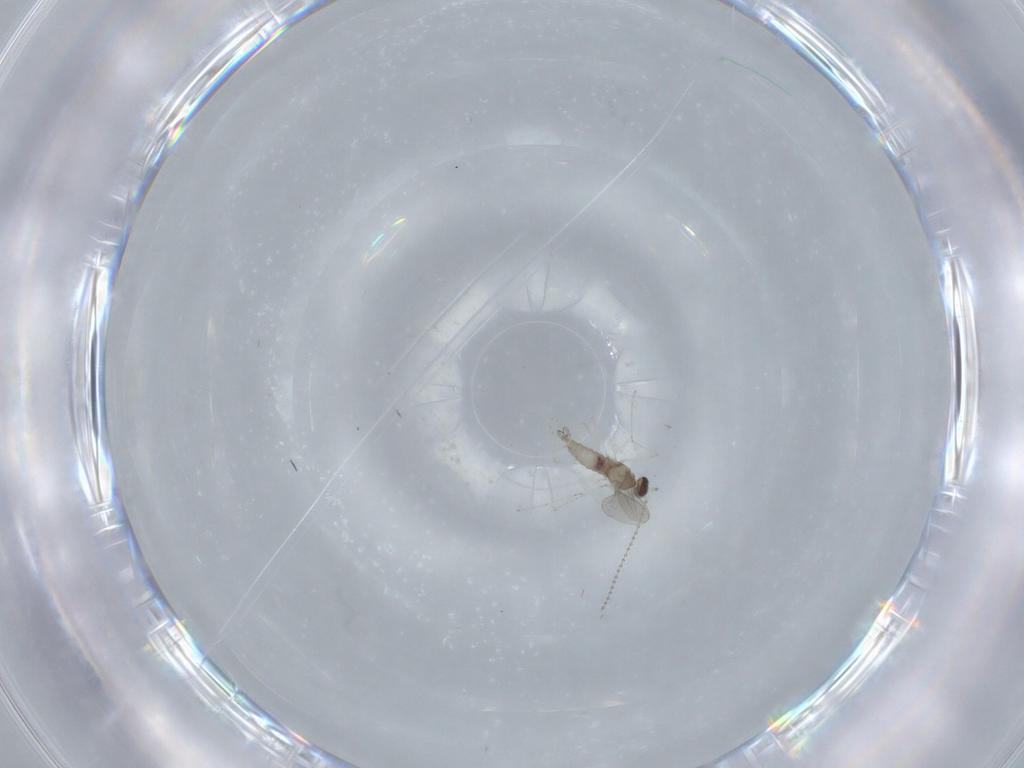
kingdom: Animalia
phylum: Arthropoda
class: Insecta
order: Diptera
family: Cecidomyiidae
